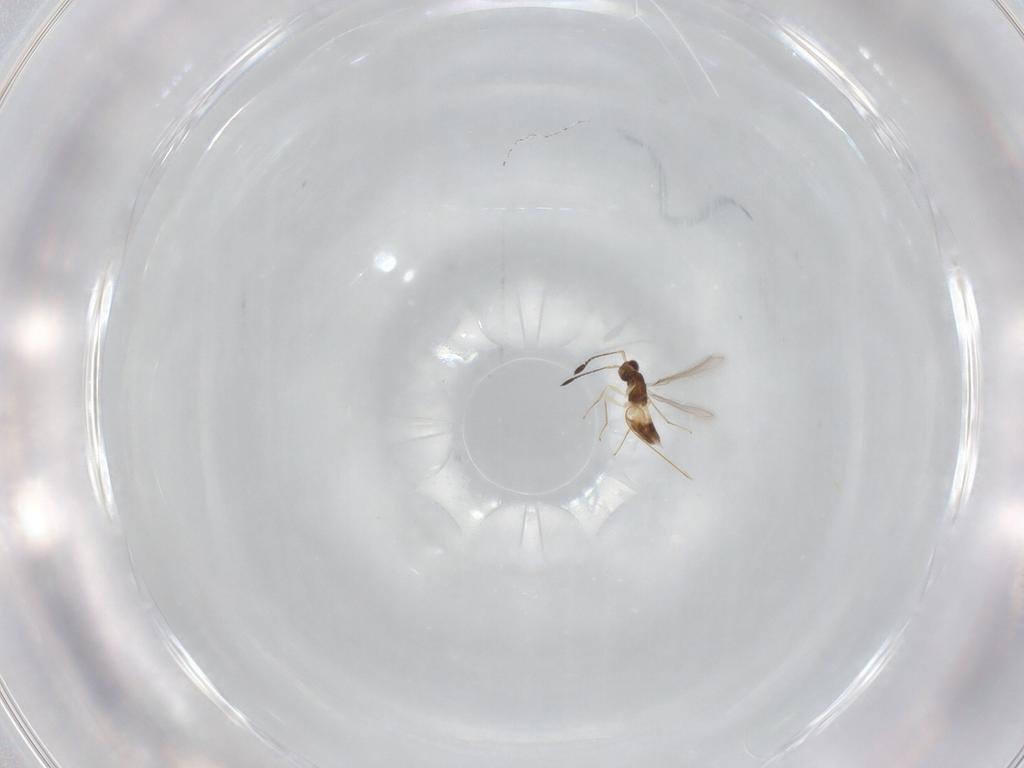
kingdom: Animalia
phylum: Arthropoda
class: Insecta
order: Hymenoptera
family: Mymaridae
